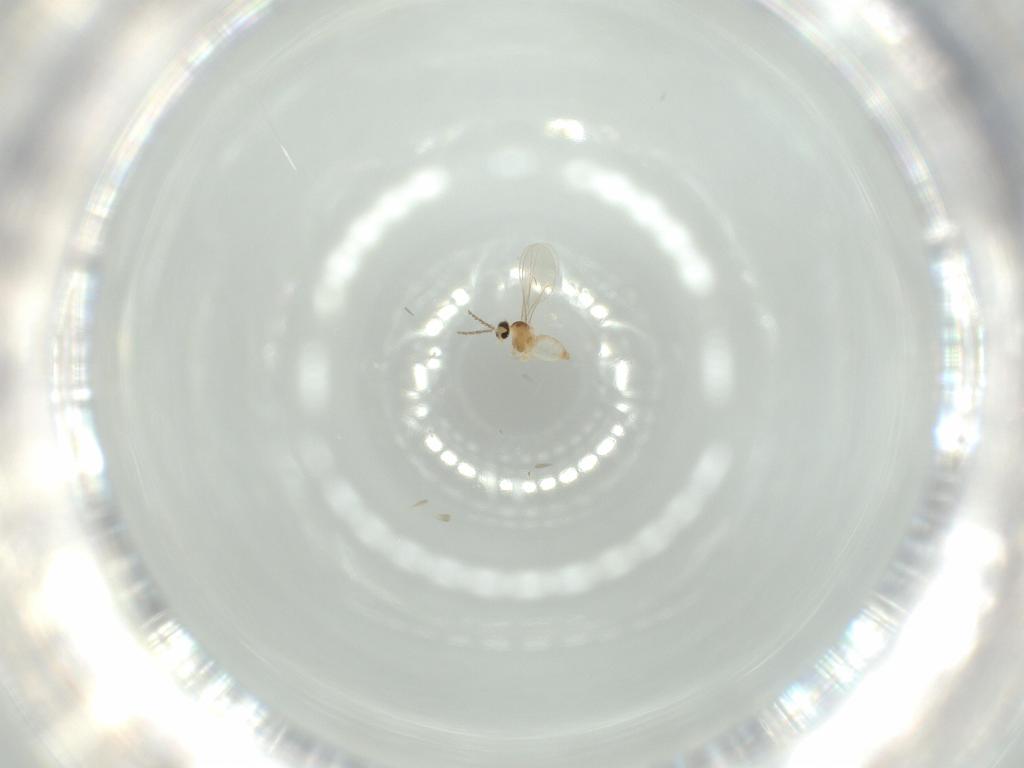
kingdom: Animalia
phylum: Arthropoda
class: Insecta
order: Diptera
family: Cecidomyiidae
